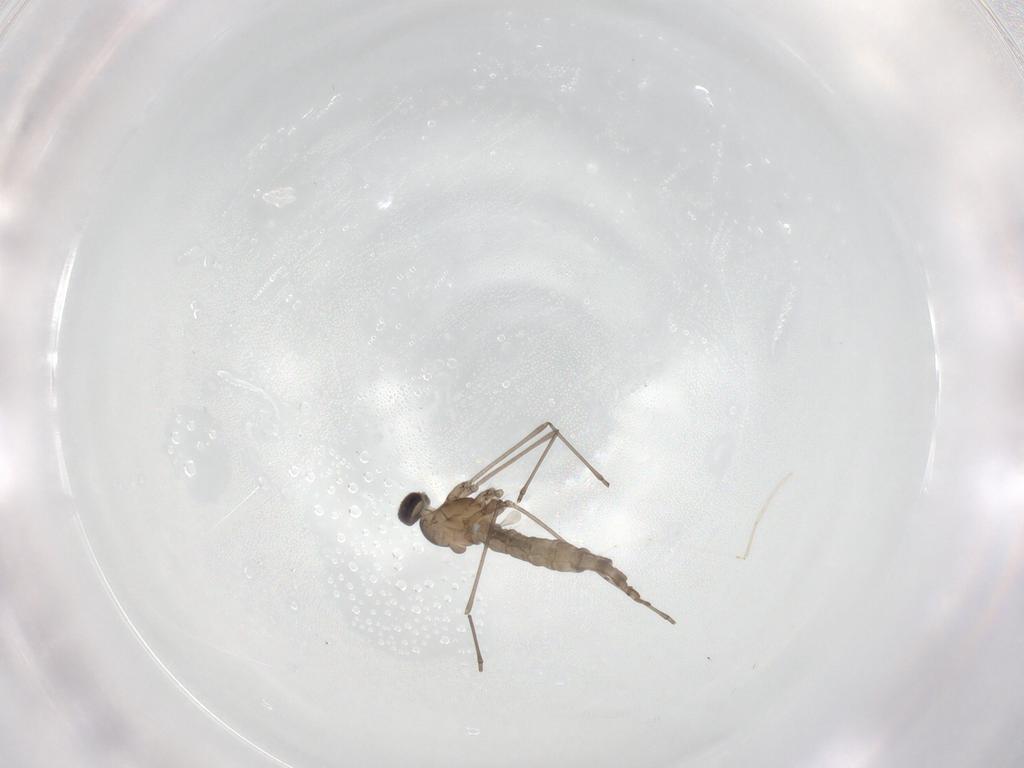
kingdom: Animalia
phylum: Arthropoda
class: Insecta
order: Diptera
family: Cecidomyiidae
